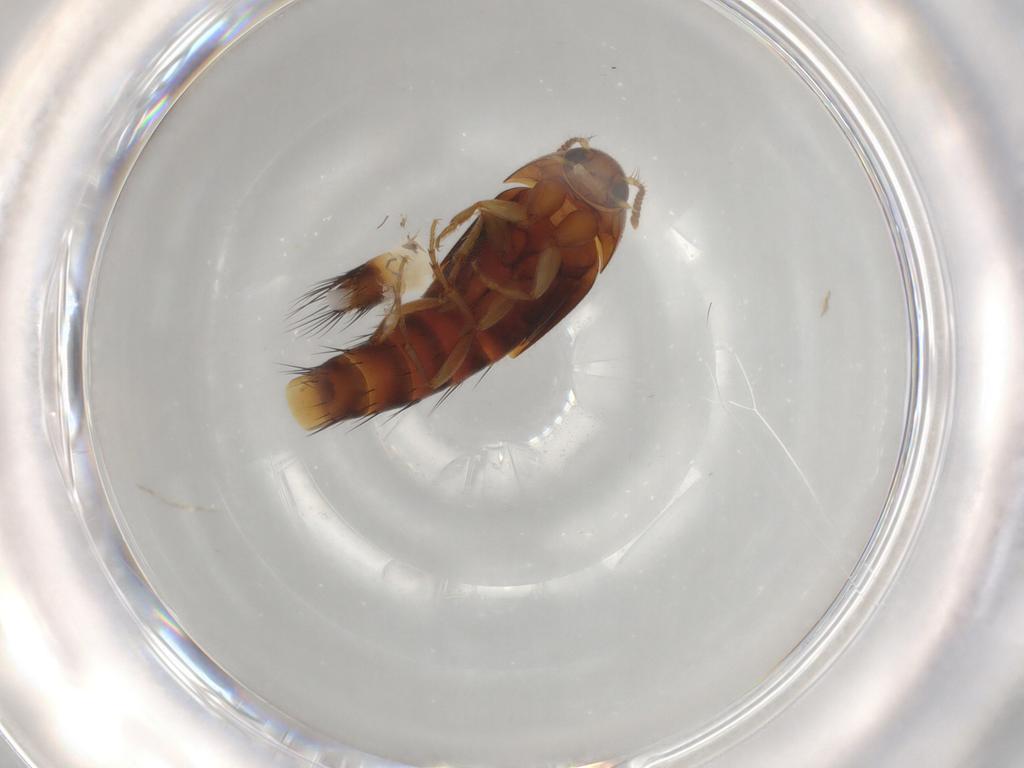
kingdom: Animalia
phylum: Arthropoda
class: Insecta
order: Coleoptera
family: Staphylinidae
